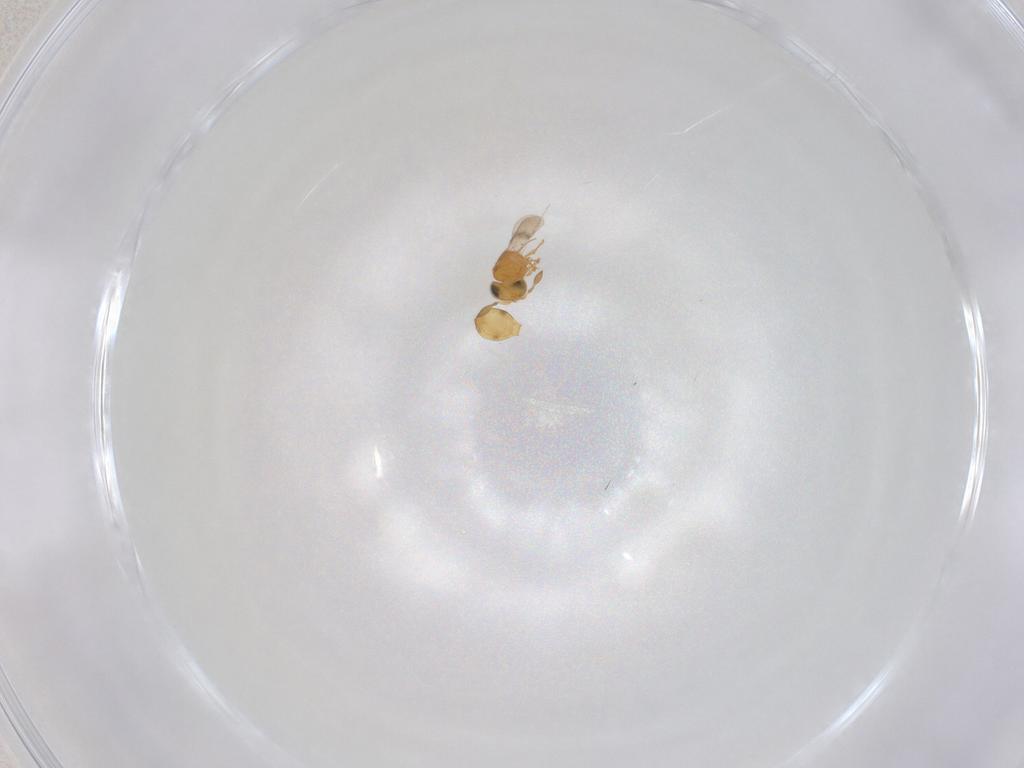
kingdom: Animalia
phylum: Arthropoda
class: Insecta
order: Hymenoptera
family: Scelionidae
